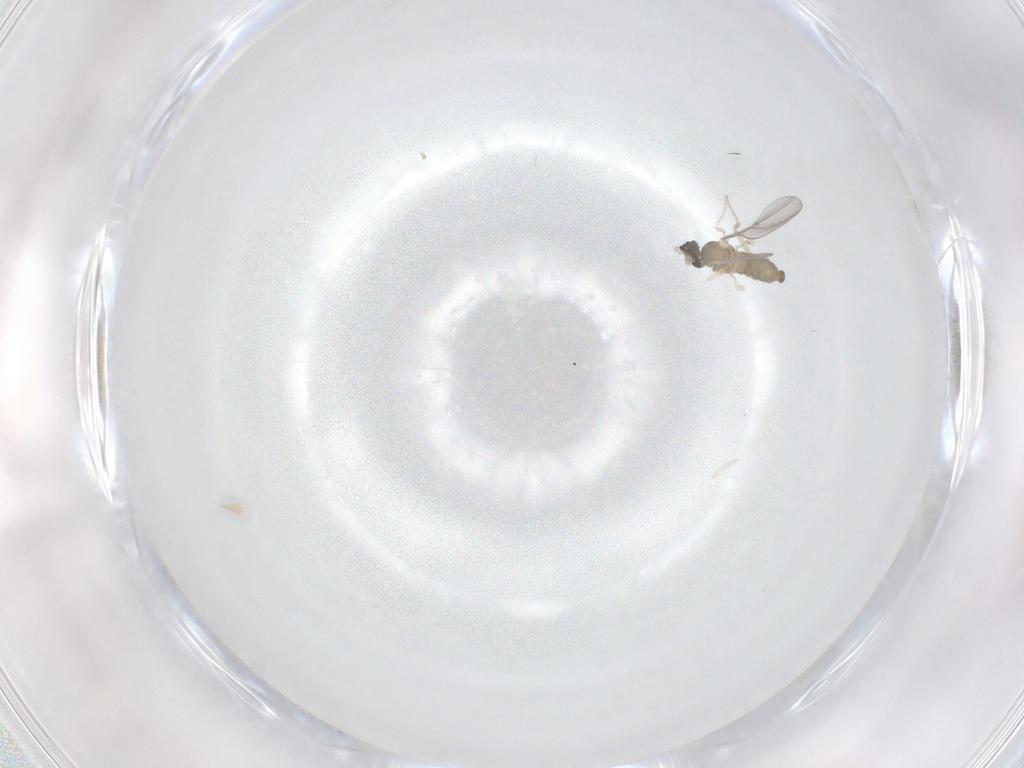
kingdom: Animalia
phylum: Arthropoda
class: Insecta
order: Diptera
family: Cecidomyiidae
